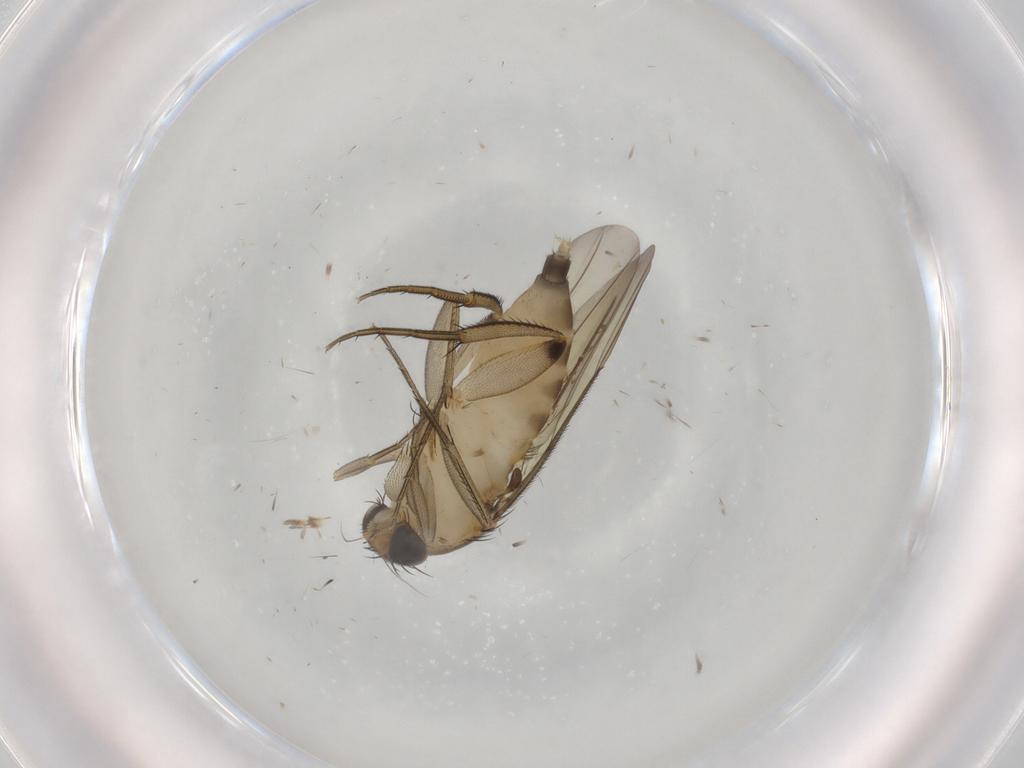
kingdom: Animalia
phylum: Arthropoda
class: Insecta
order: Diptera
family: Phoridae
